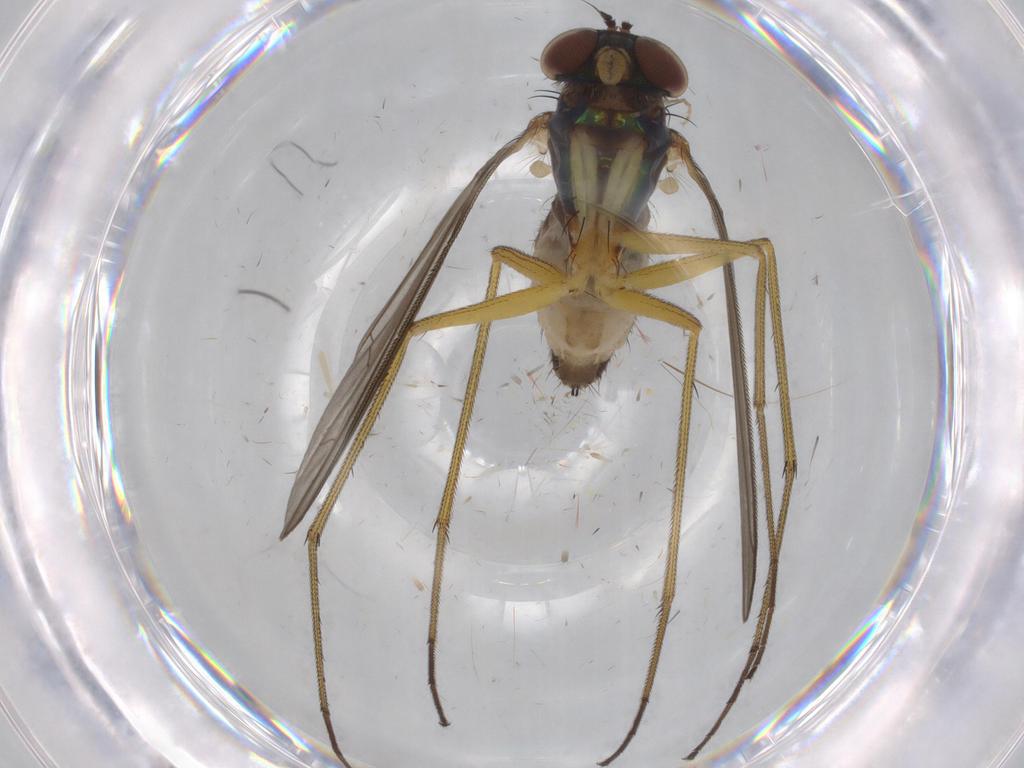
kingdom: Animalia
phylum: Arthropoda
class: Insecta
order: Diptera
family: Dolichopodidae
